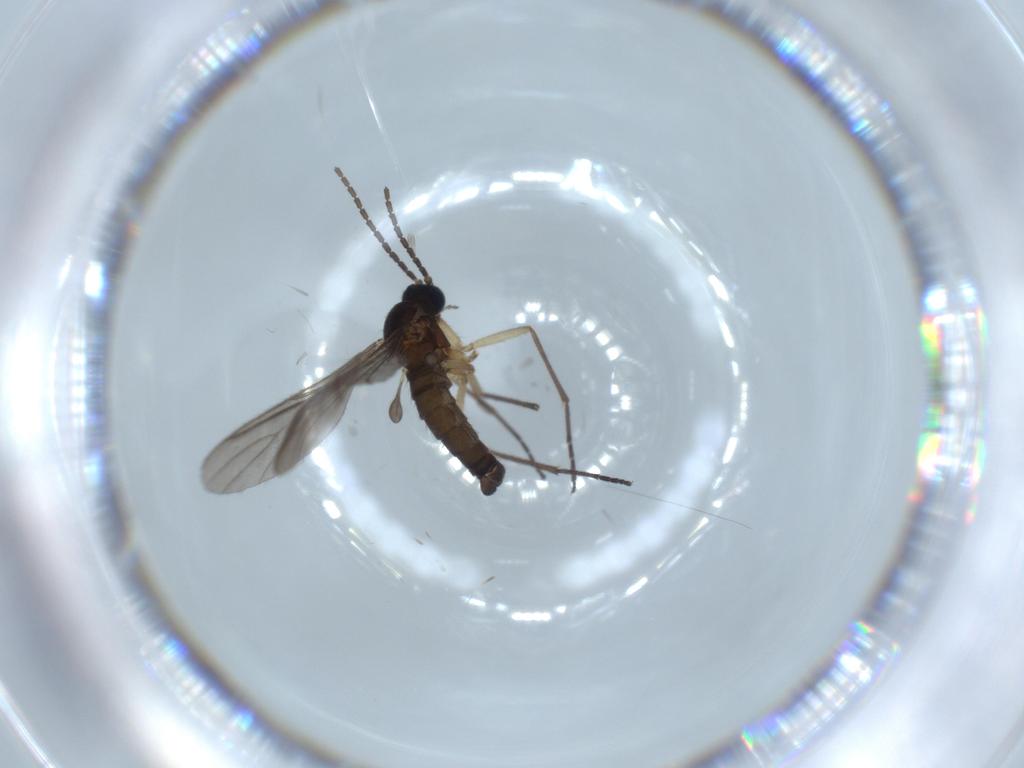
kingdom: Animalia
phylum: Arthropoda
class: Insecta
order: Diptera
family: Sciaridae
